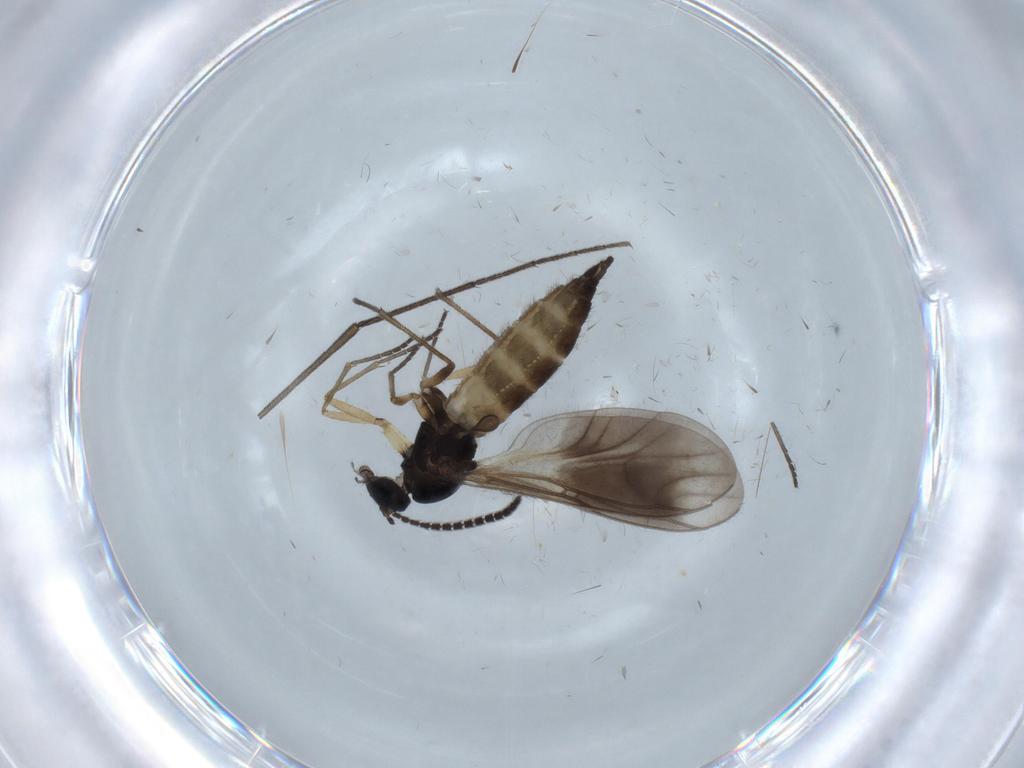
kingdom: Animalia
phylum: Arthropoda
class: Insecta
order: Diptera
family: Sciaridae
